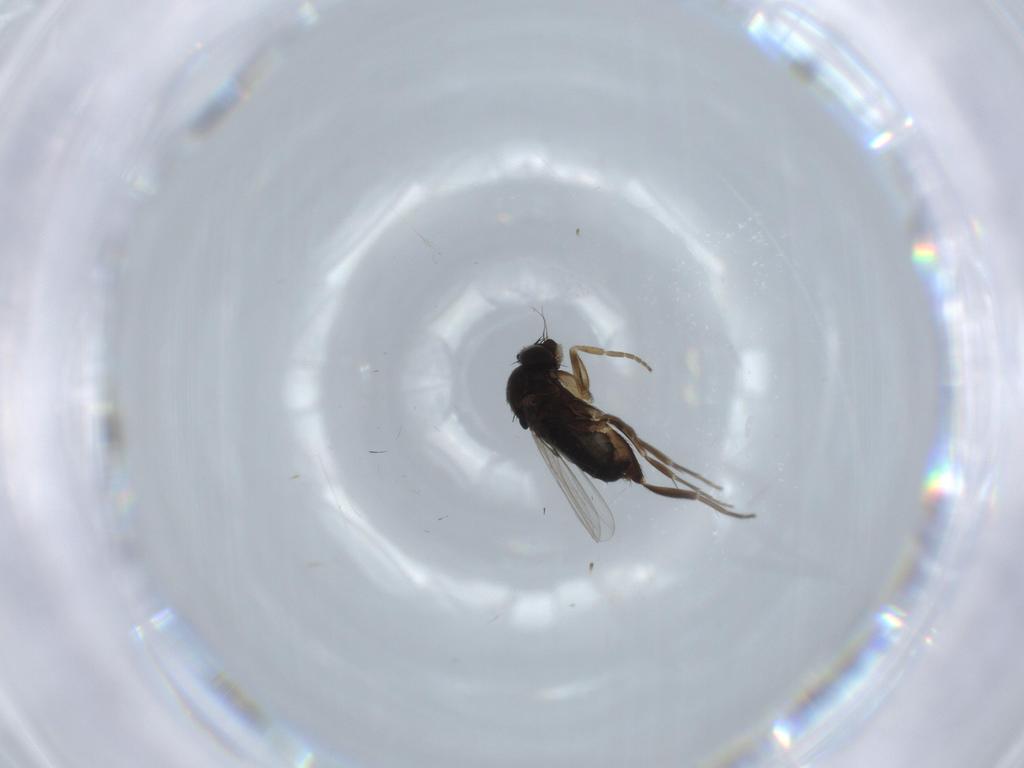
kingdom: Animalia
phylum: Arthropoda
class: Insecta
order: Diptera
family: Phoridae
